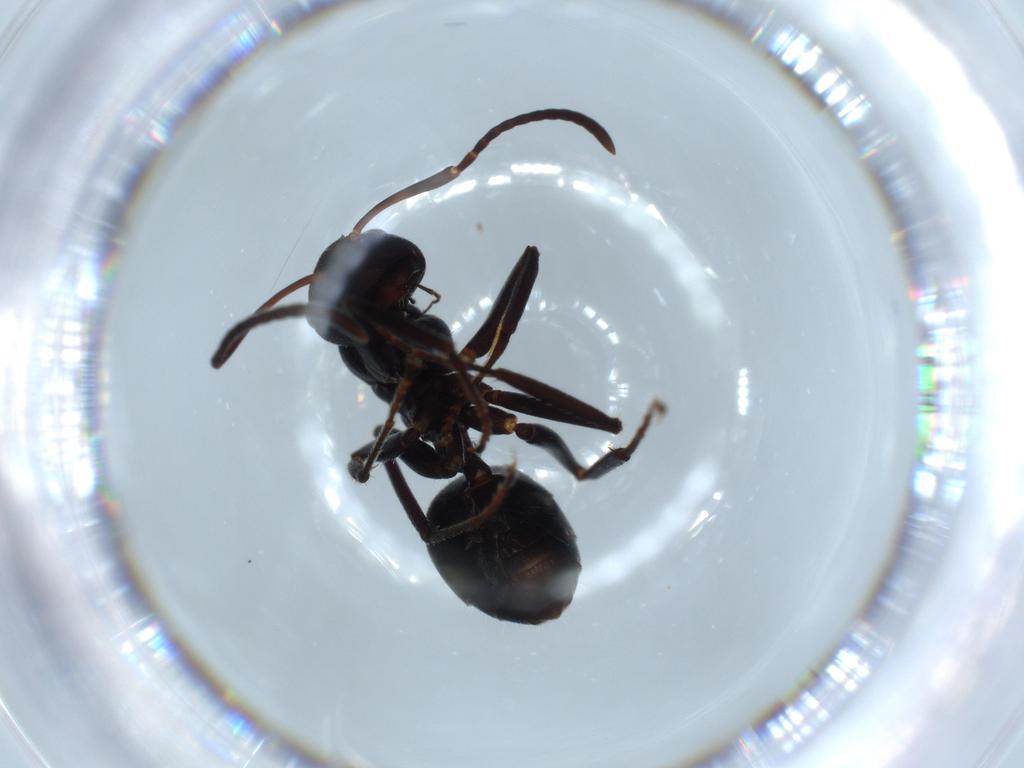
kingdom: Animalia
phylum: Arthropoda
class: Insecta
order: Hymenoptera
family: Formicidae
